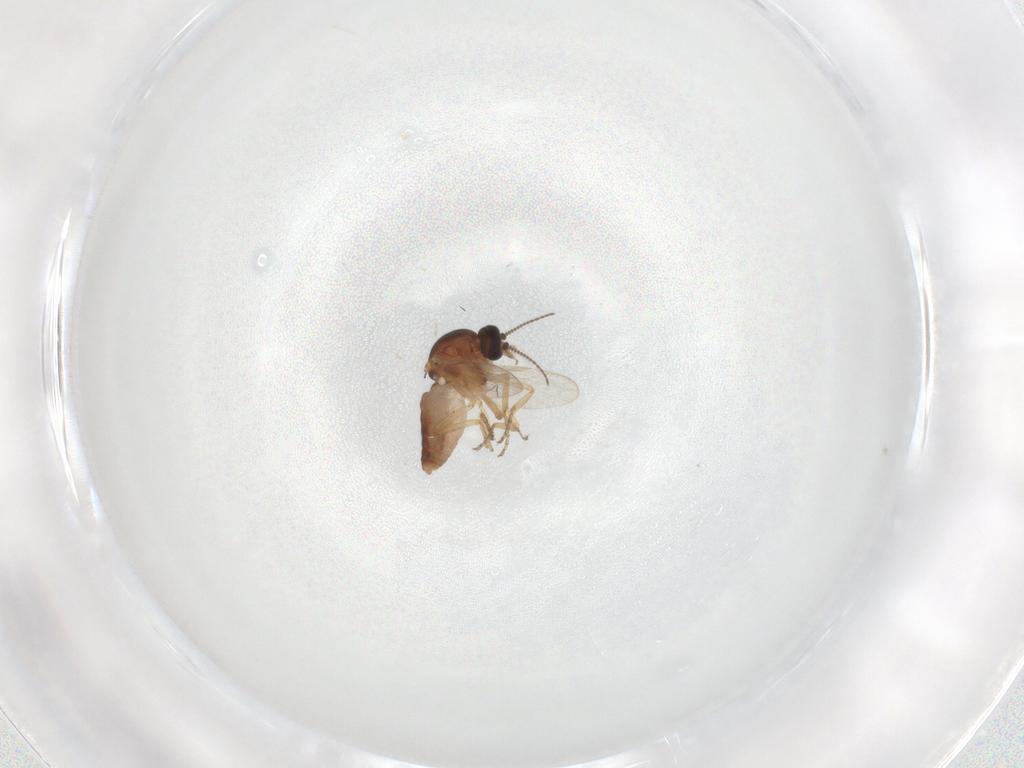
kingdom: Animalia
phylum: Arthropoda
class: Insecta
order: Diptera
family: Ceratopogonidae
